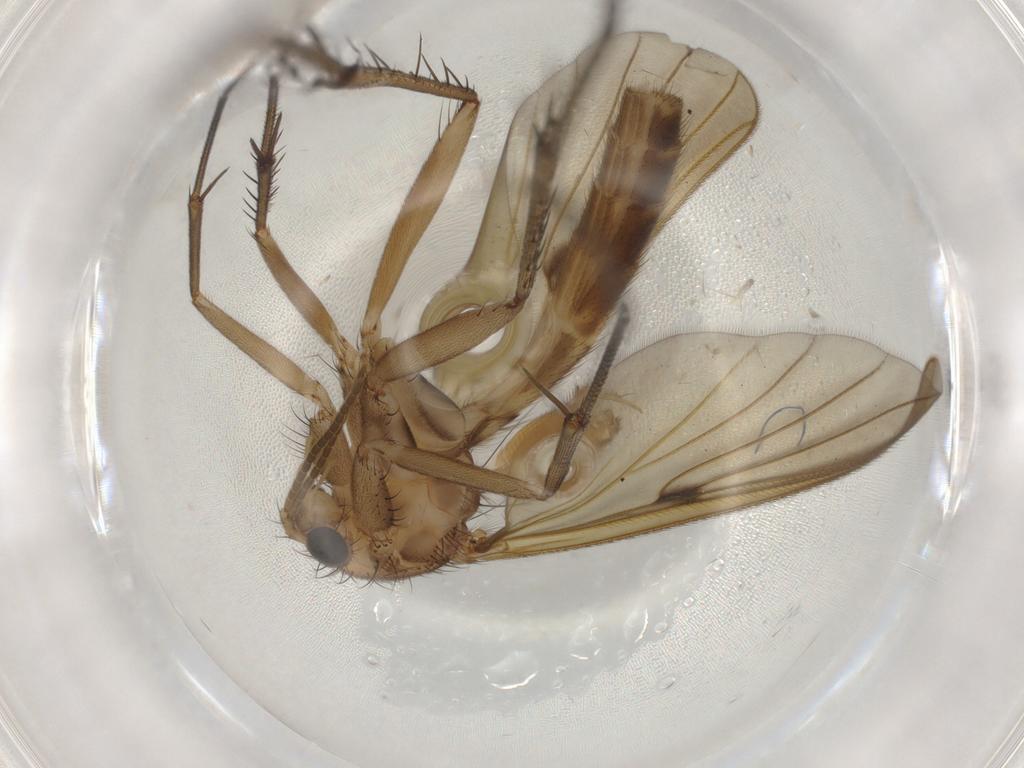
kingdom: Animalia
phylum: Arthropoda
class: Insecta
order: Diptera
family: Mycetophilidae
